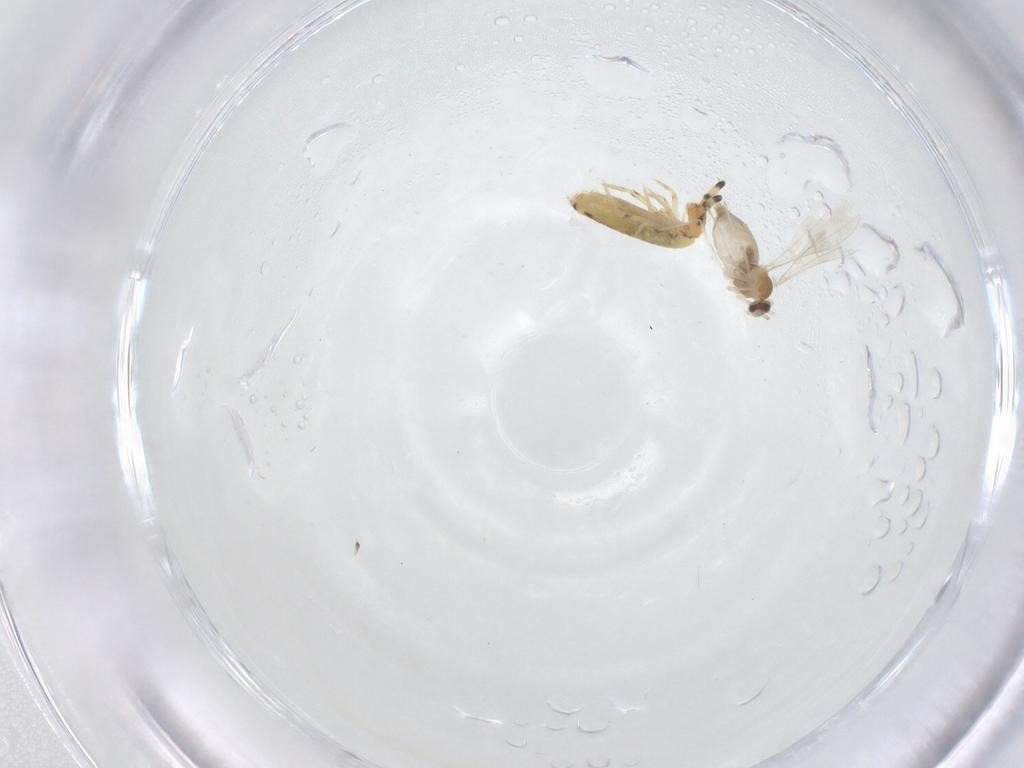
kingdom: Animalia
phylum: Arthropoda
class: Insecta
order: Diptera
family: Cecidomyiidae
